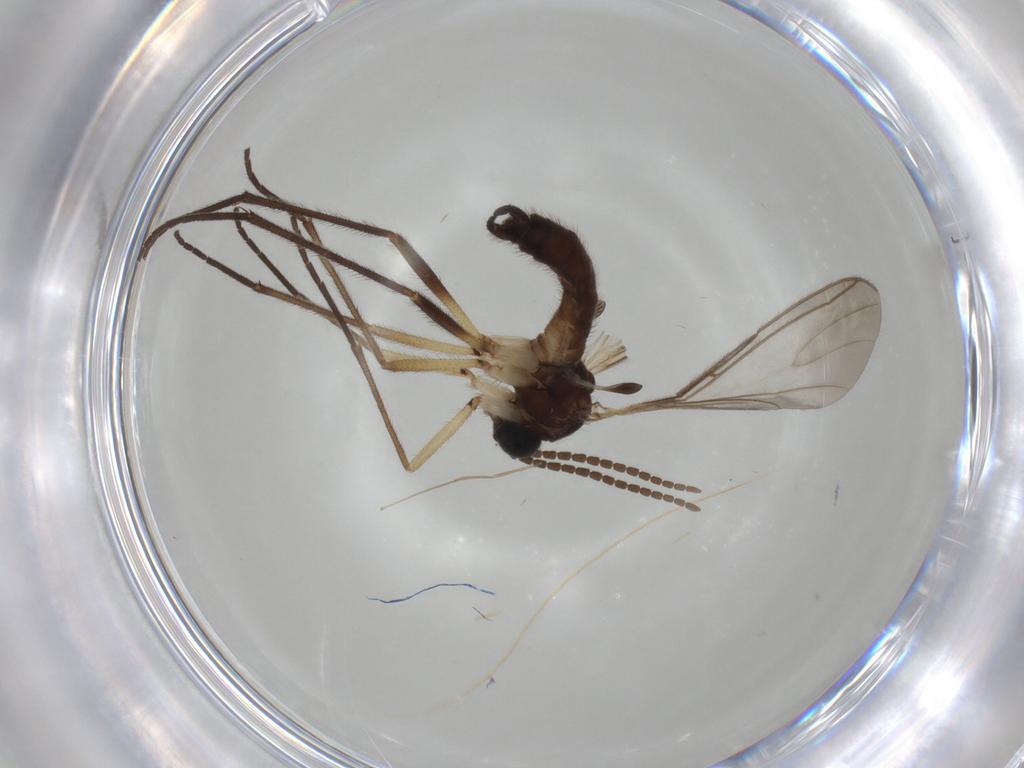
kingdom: Animalia
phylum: Arthropoda
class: Insecta
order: Diptera
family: Sciaridae
